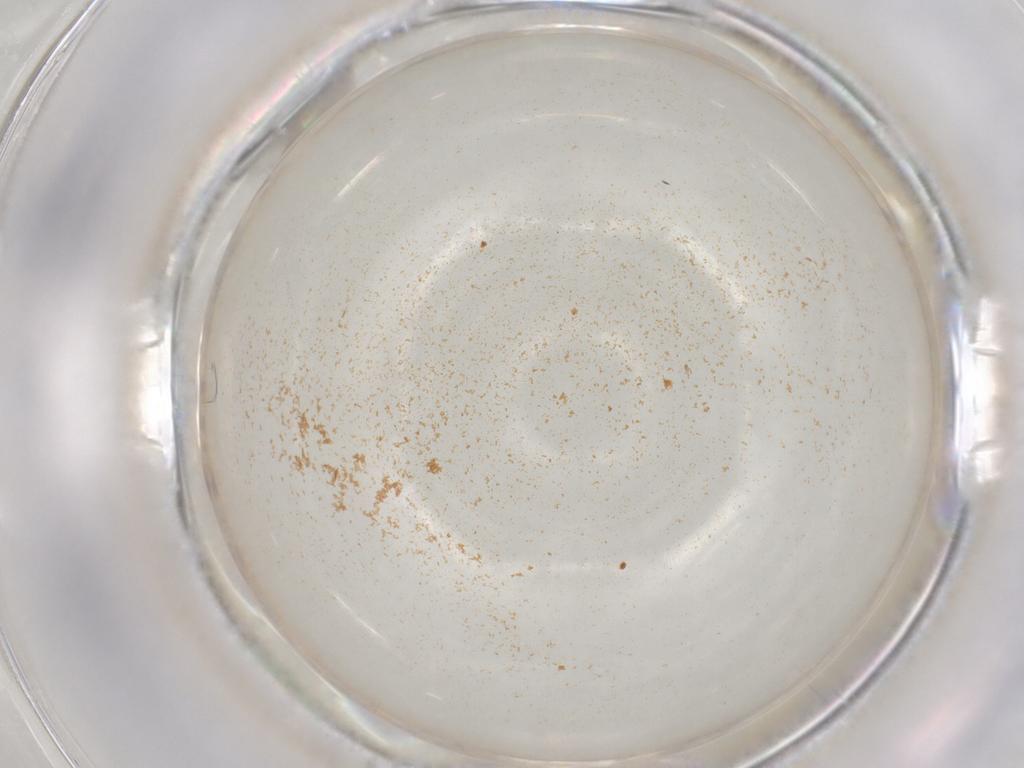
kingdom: Animalia
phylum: Arthropoda
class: Insecta
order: Hemiptera
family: Aleyrodidae
